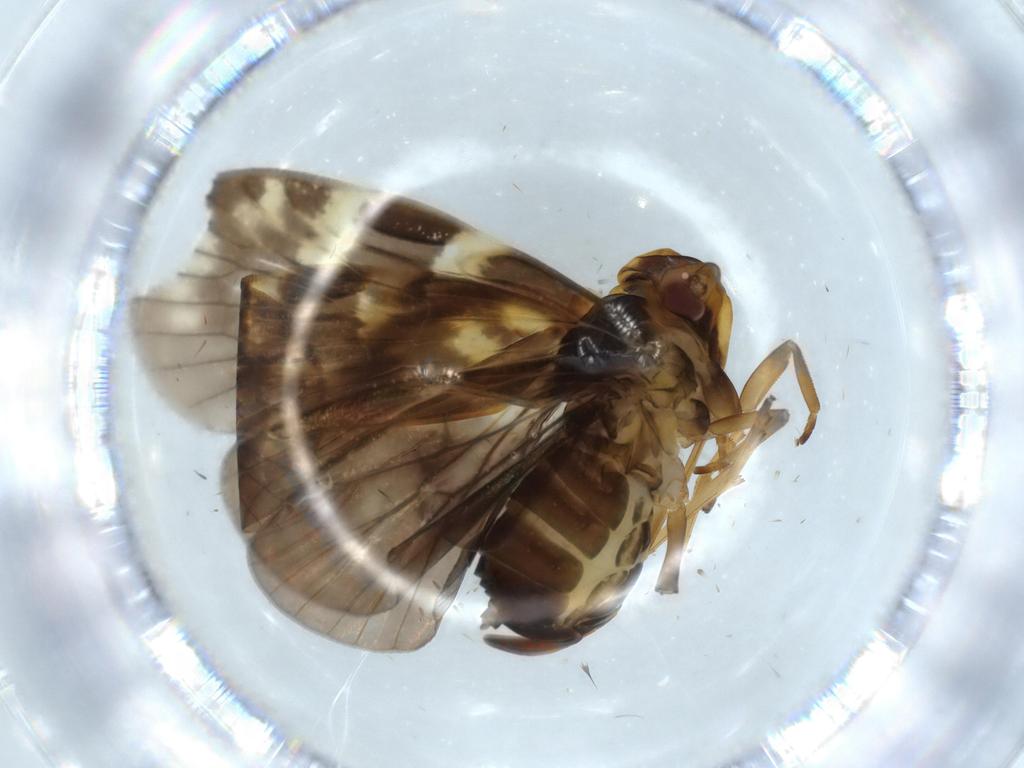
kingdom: Animalia
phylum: Arthropoda
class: Insecta
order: Hemiptera
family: Cixiidae
